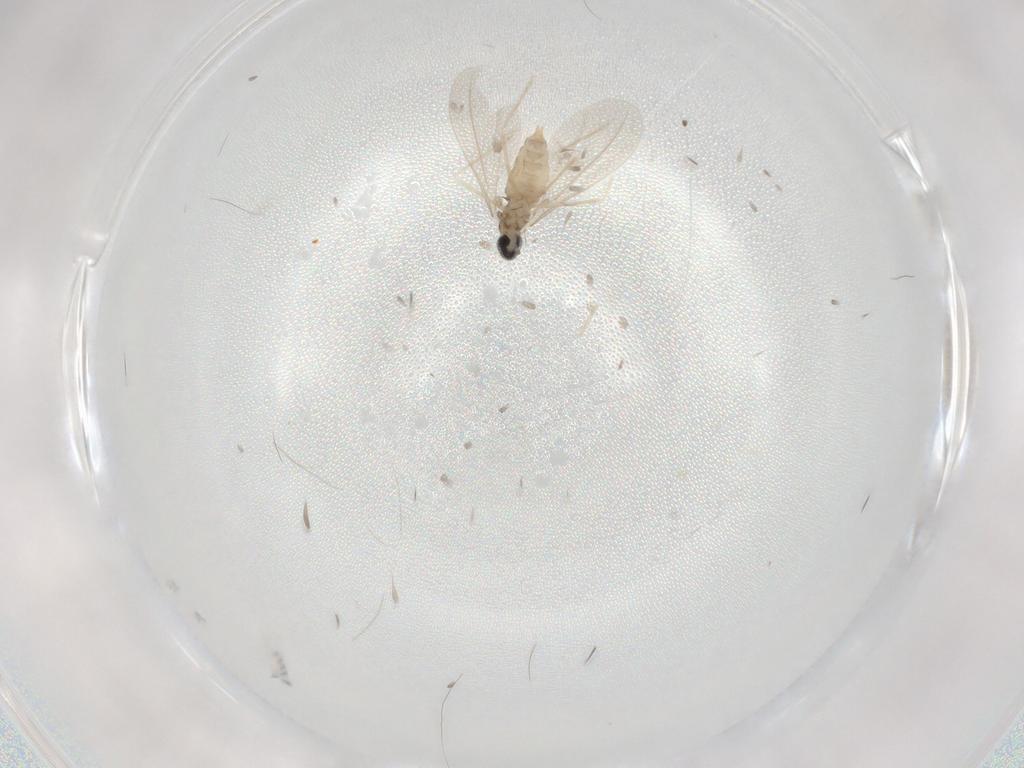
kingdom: Animalia
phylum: Arthropoda
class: Insecta
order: Diptera
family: Cecidomyiidae
